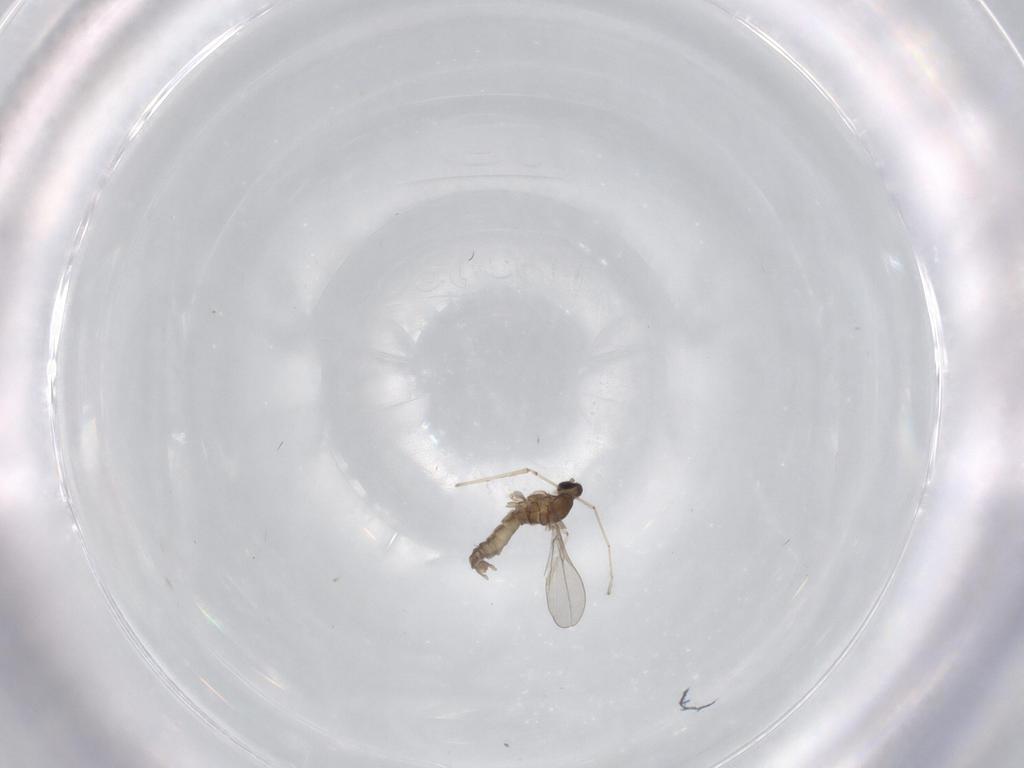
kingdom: Animalia
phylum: Arthropoda
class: Insecta
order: Diptera
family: Cecidomyiidae
